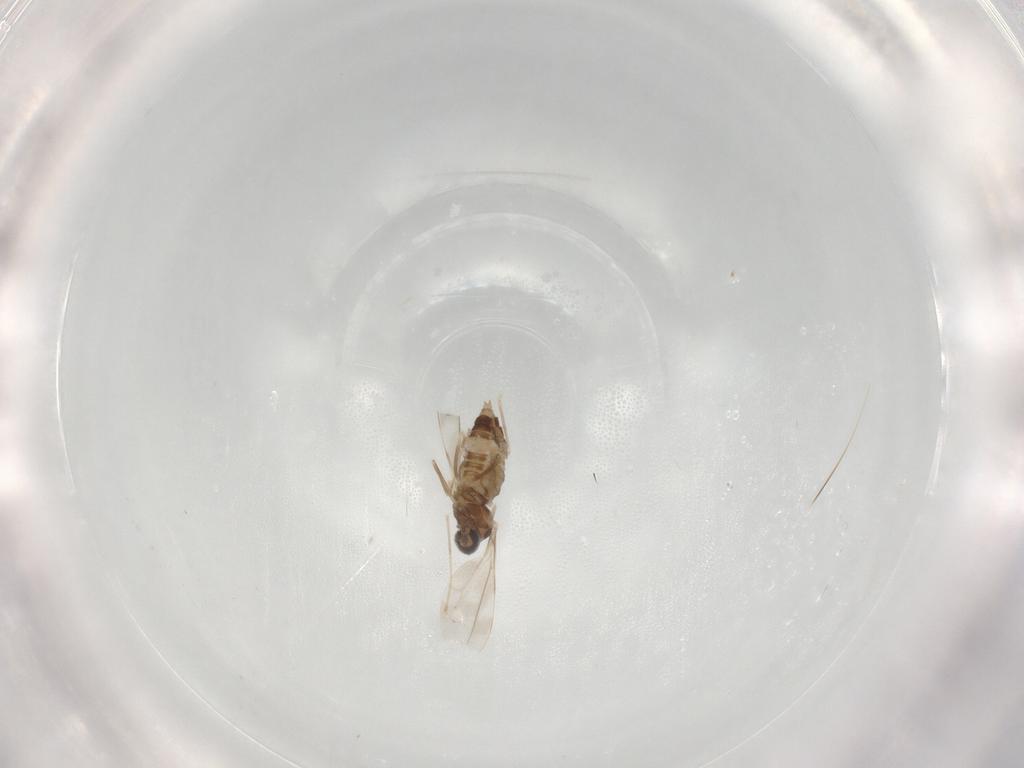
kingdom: Animalia
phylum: Arthropoda
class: Insecta
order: Diptera
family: Cecidomyiidae
